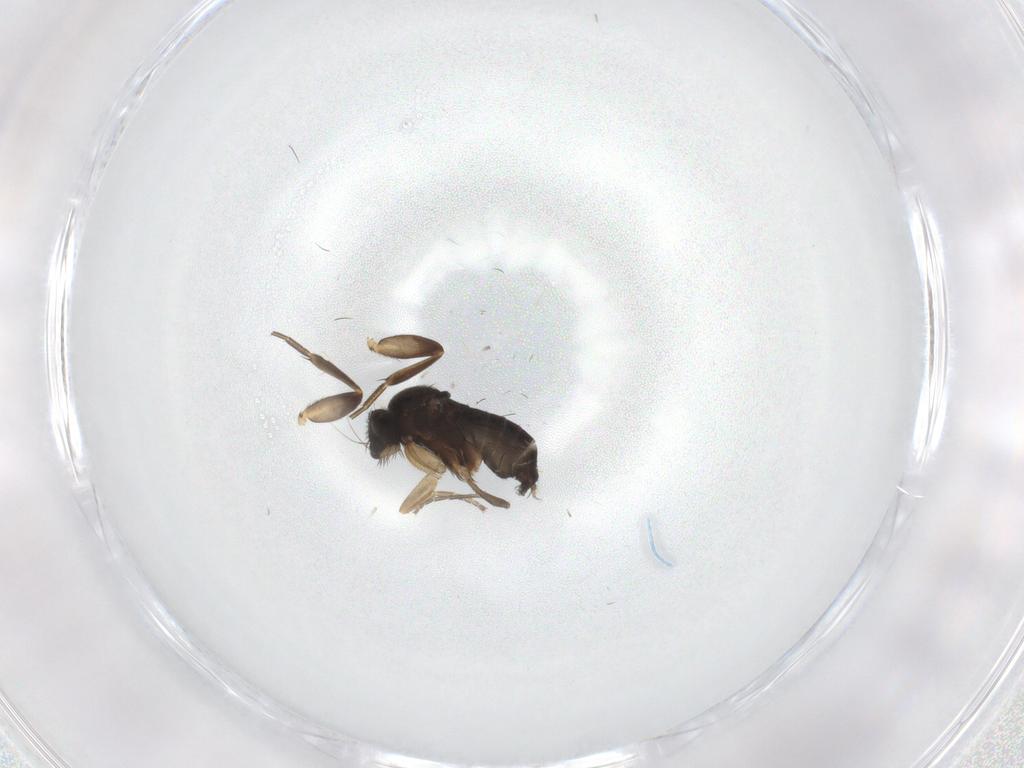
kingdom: Animalia
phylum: Arthropoda
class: Insecta
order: Diptera
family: Phoridae
